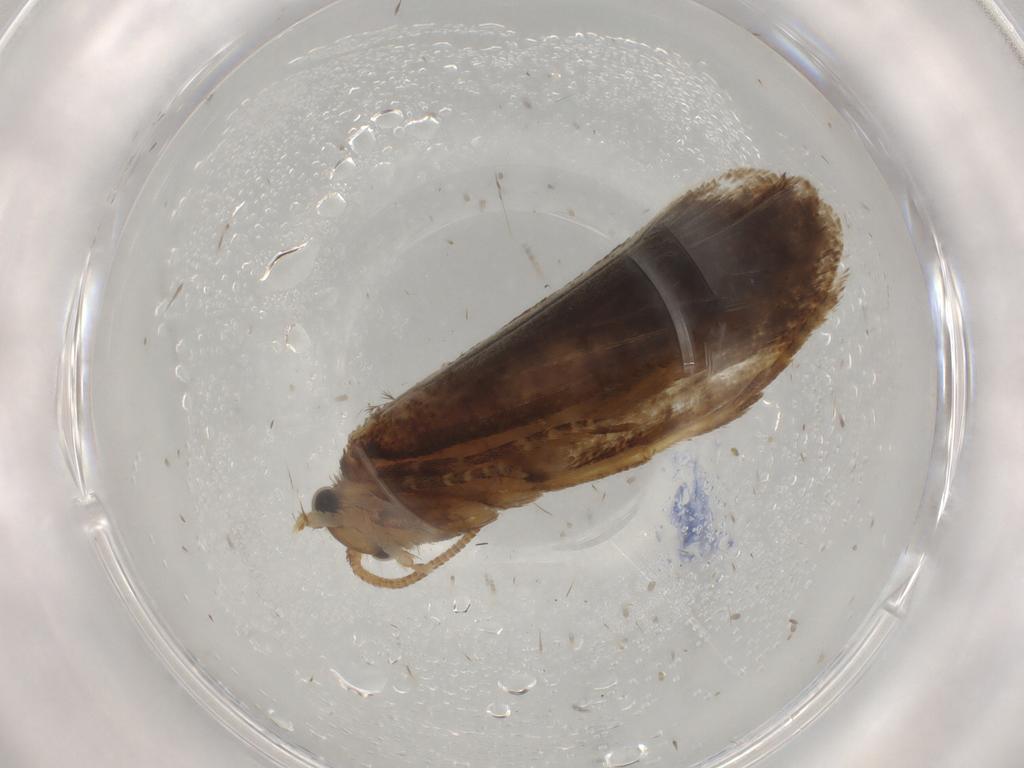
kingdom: Animalia
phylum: Arthropoda
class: Insecta
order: Lepidoptera
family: Nepticulidae
